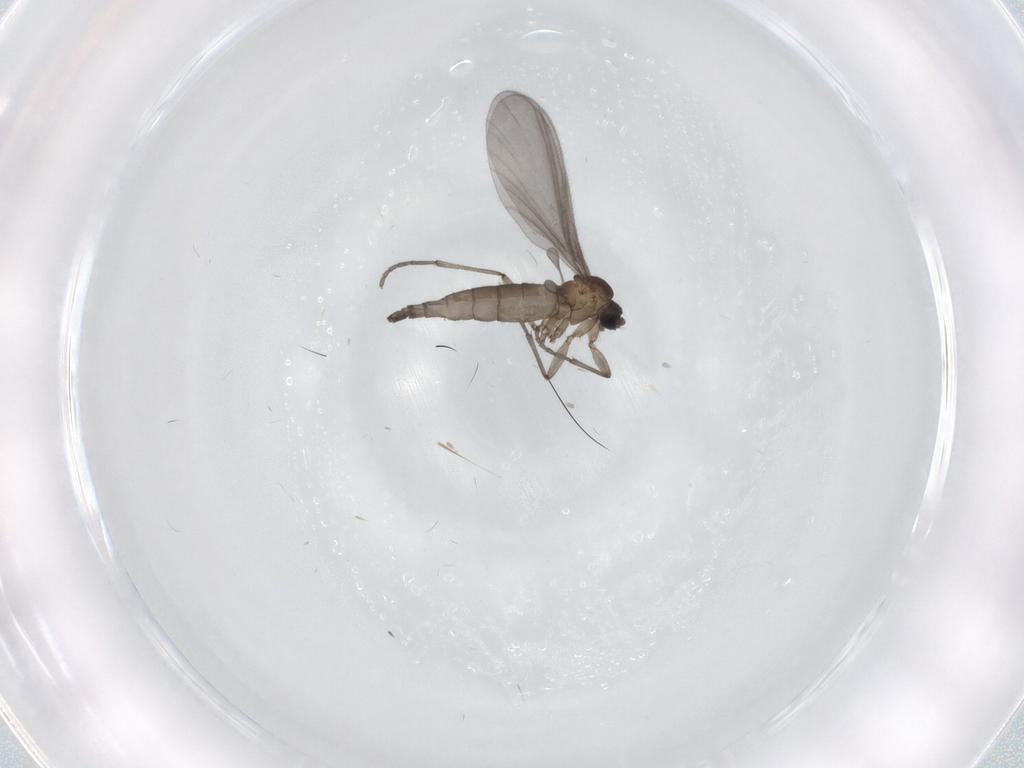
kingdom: Animalia
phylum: Arthropoda
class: Insecta
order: Diptera
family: Sciaridae
